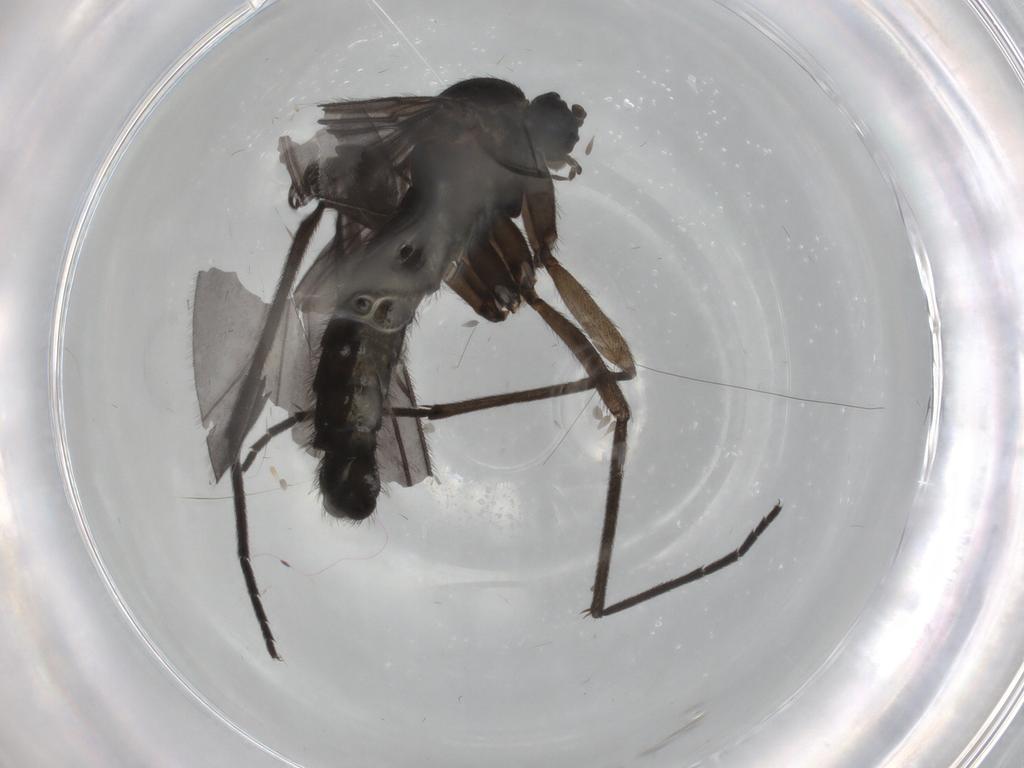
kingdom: Animalia
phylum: Arthropoda
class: Insecta
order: Diptera
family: Sciaridae
